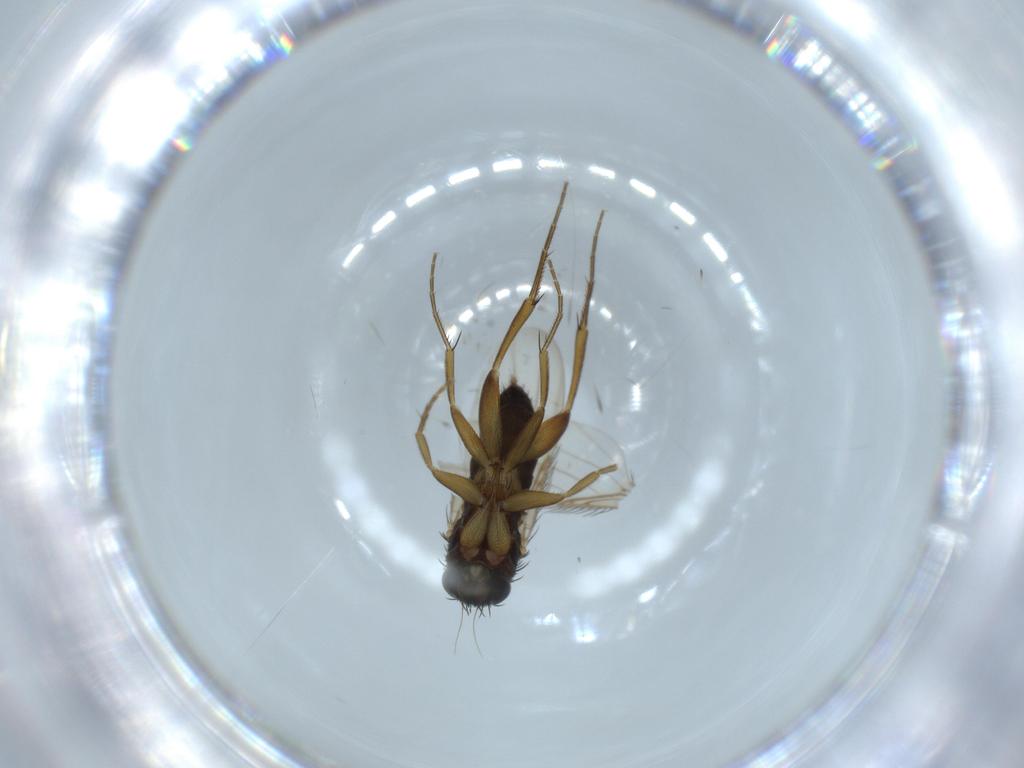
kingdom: Animalia
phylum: Arthropoda
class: Insecta
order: Diptera
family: Phoridae
